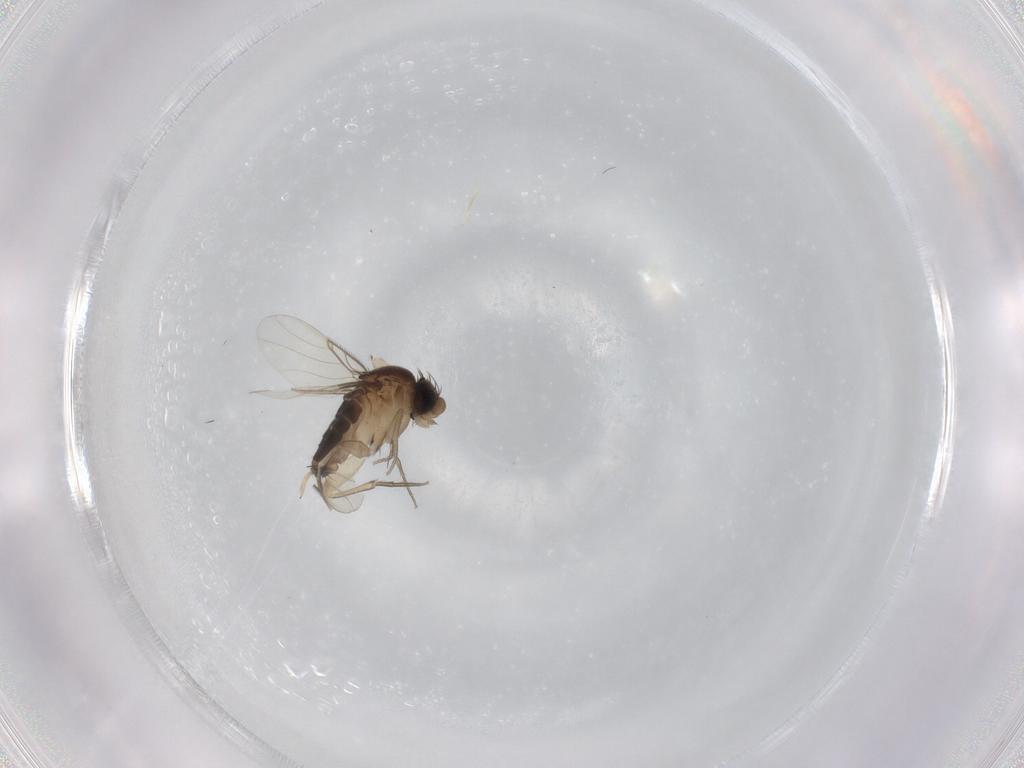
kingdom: Animalia
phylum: Arthropoda
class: Insecta
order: Diptera
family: Phoridae
